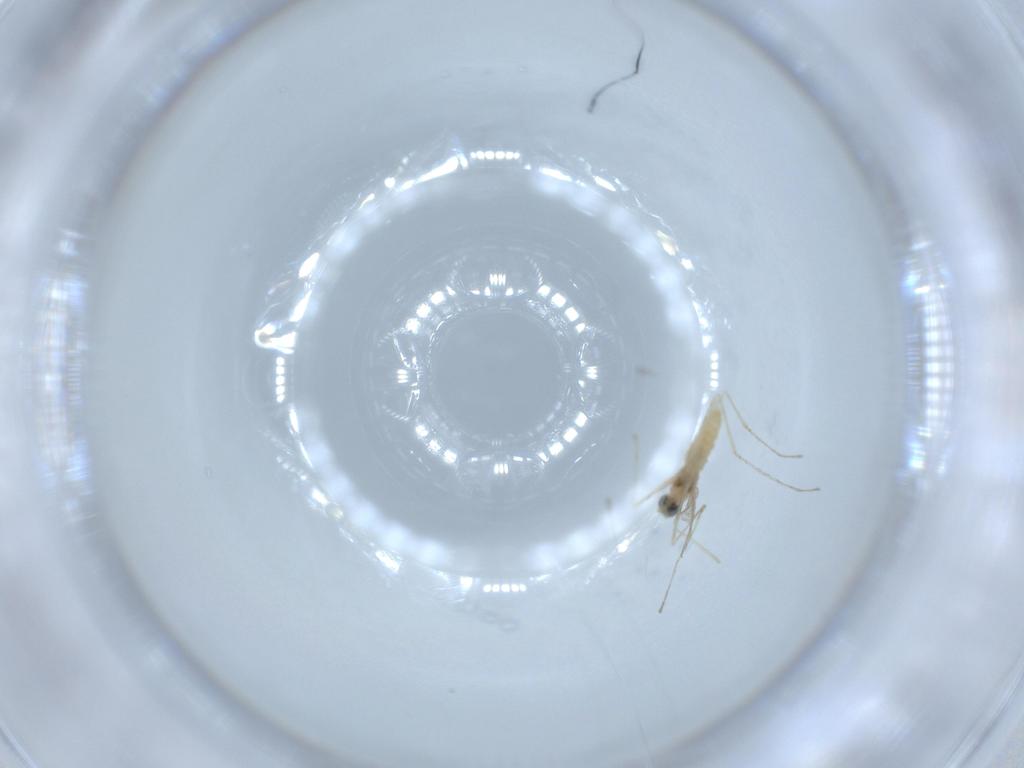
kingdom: Animalia
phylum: Arthropoda
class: Insecta
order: Diptera
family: Cecidomyiidae
